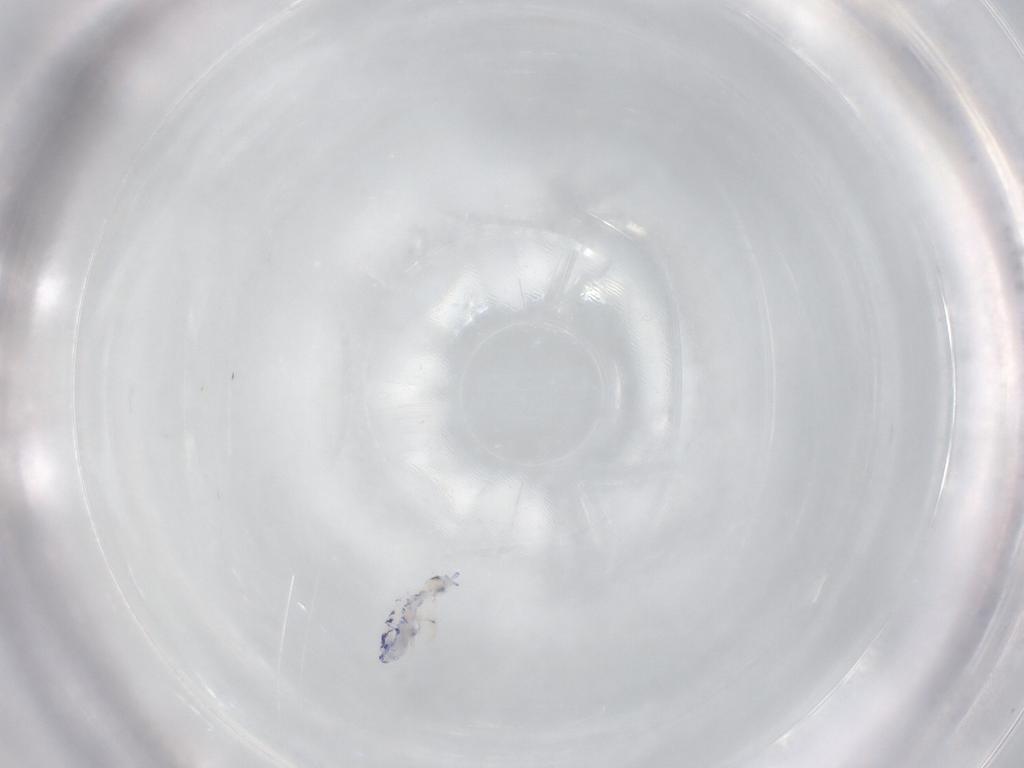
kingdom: Animalia
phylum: Arthropoda
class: Collembola
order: Entomobryomorpha
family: Entomobryidae
